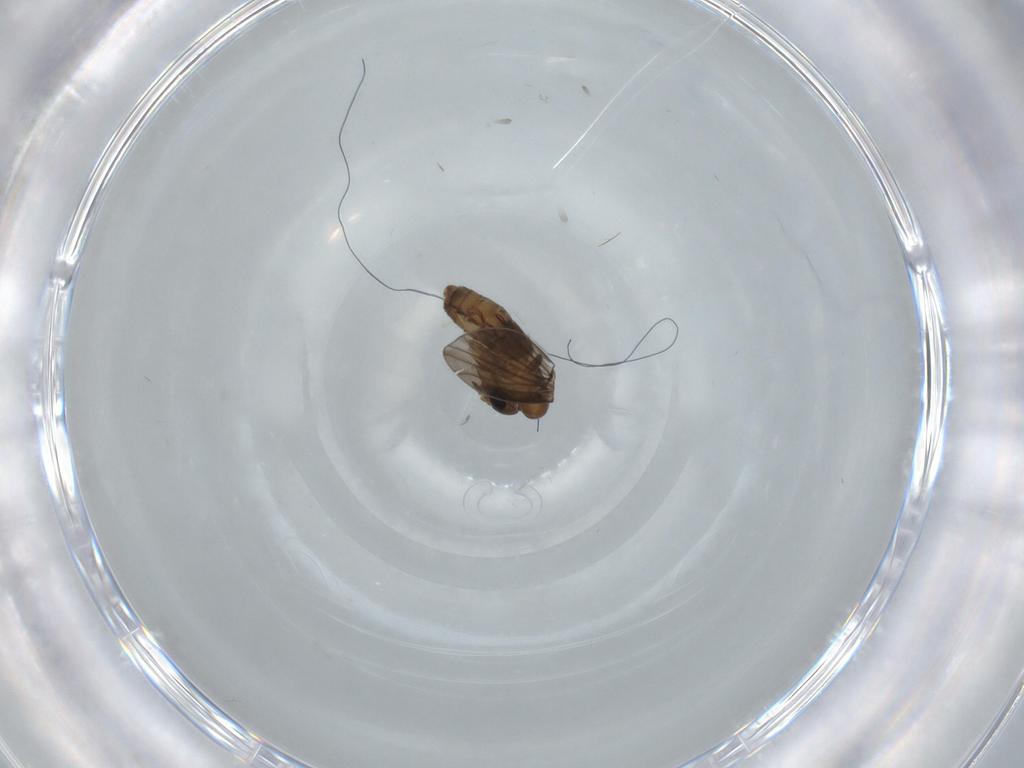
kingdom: Animalia
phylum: Arthropoda
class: Insecta
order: Diptera
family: Psychodidae
